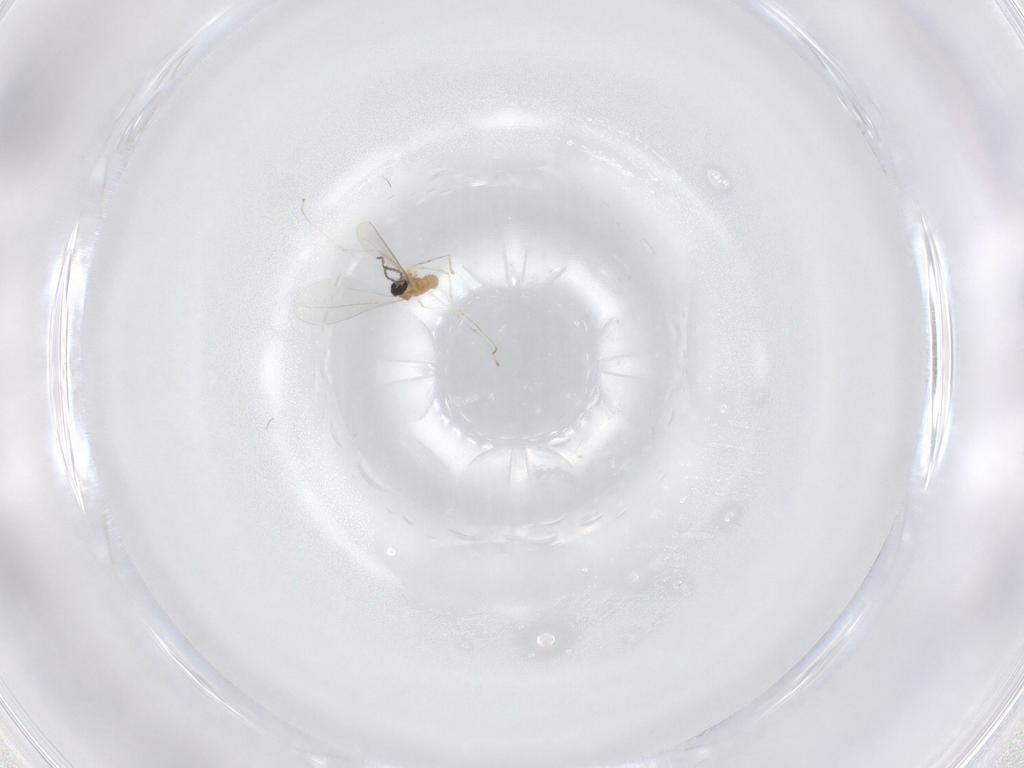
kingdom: Animalia
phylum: Arthropoda
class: Insecta
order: Diptera
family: Cecidomyiidae
